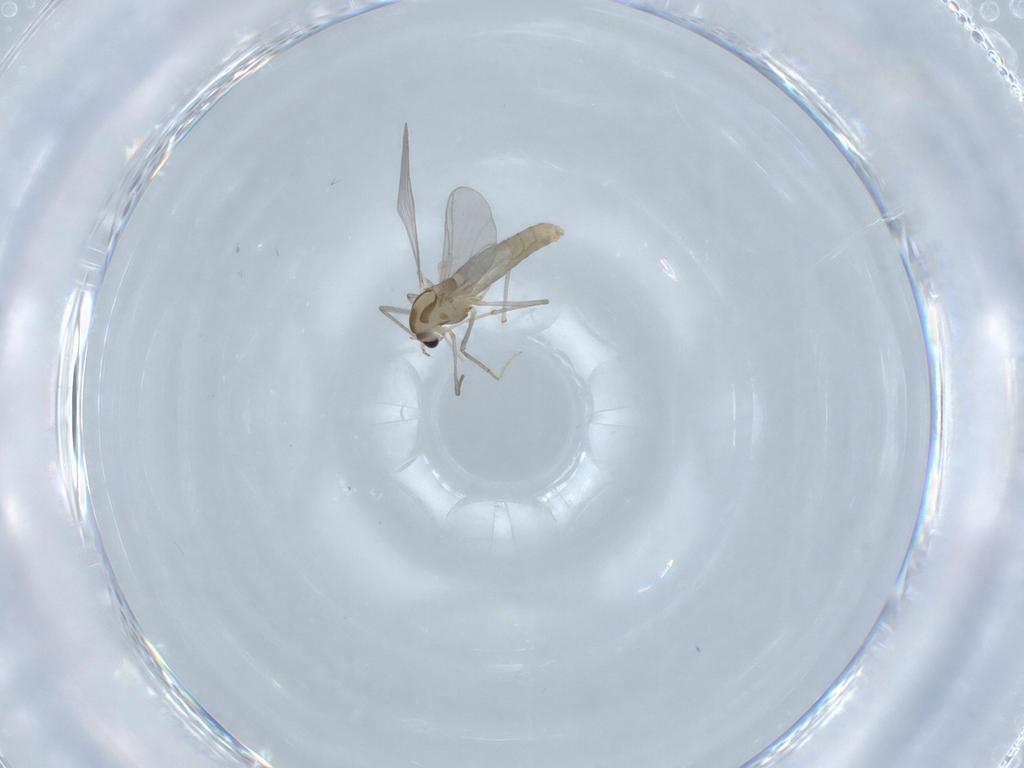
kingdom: Animalia
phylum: Arthropoda
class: Insecta
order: Diptera
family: Chironomidae
